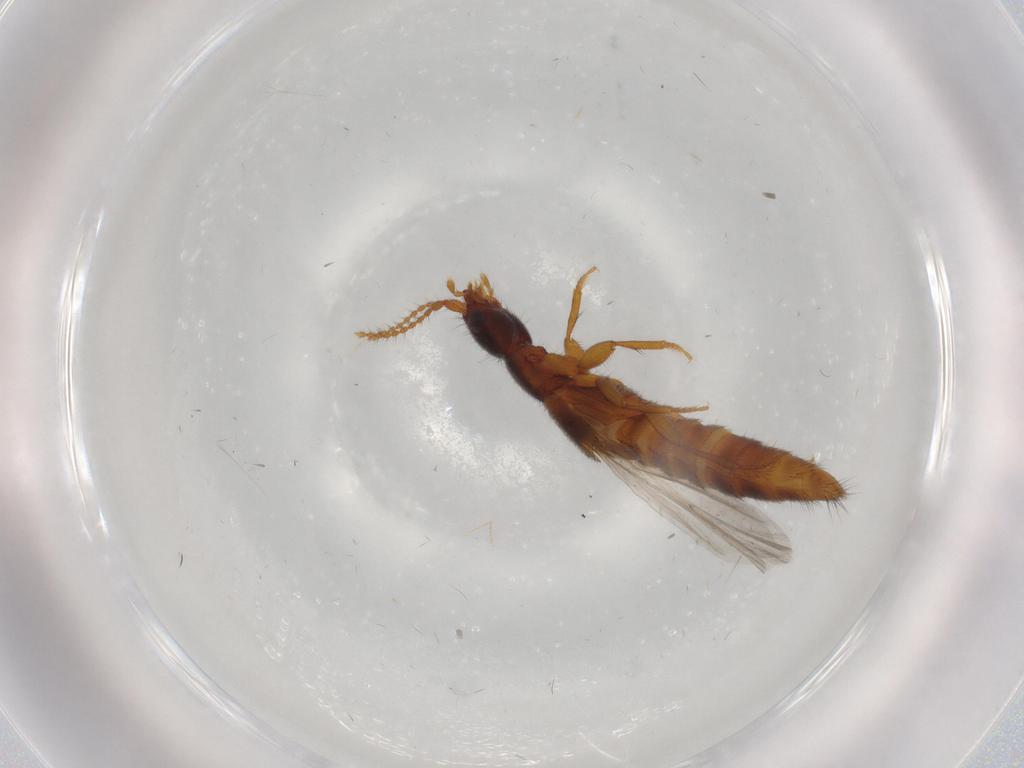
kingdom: Animalia
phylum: Arthropoda
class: Insecta
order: Coleoptera
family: Staphylinidae
